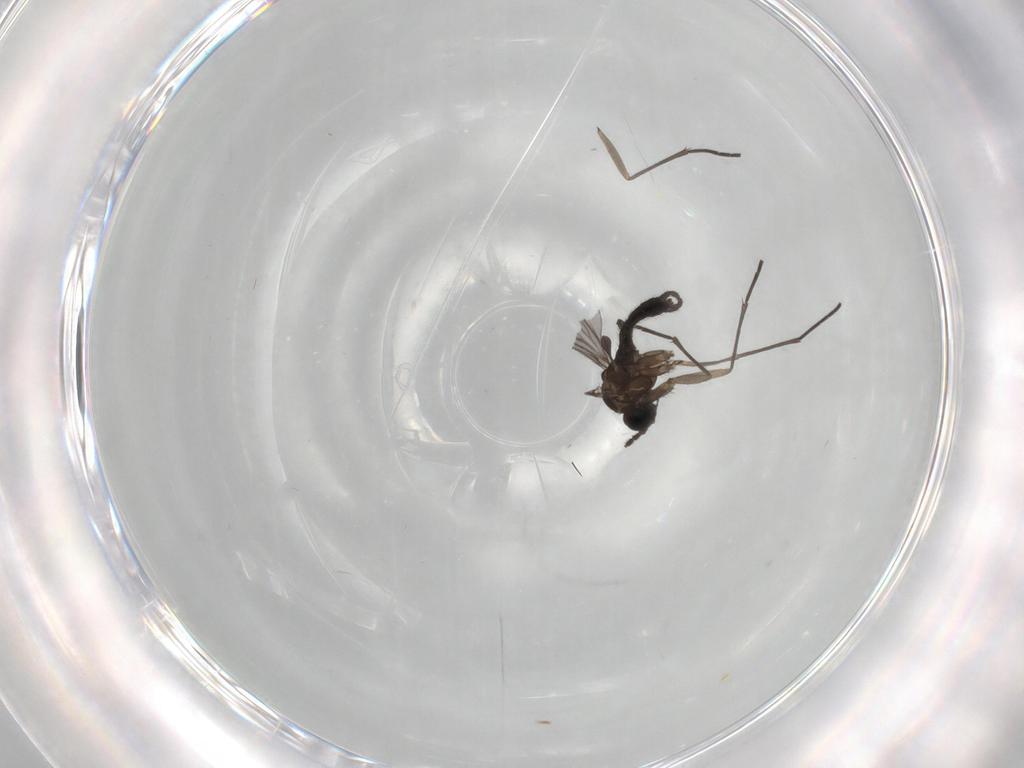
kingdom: Animalia
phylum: Arthropoda
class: Insecta
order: Diptera
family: Sciaridae
